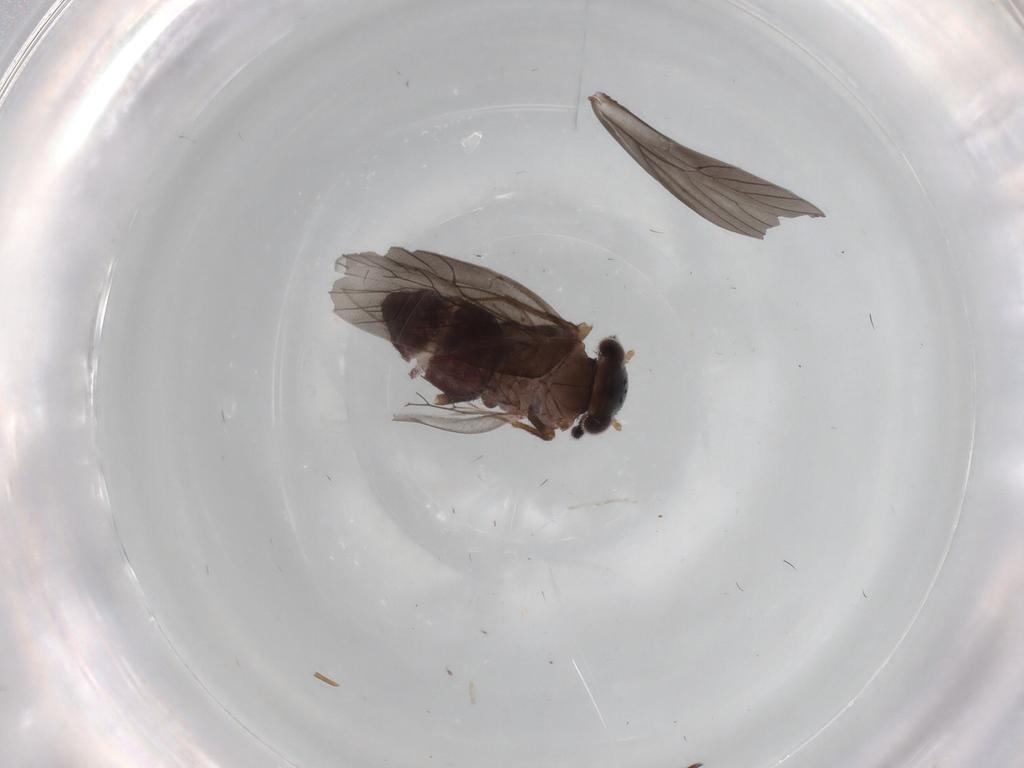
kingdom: Animalia
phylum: Arthropoda
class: Insecta
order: Psocodea
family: Lepidopsocidae
